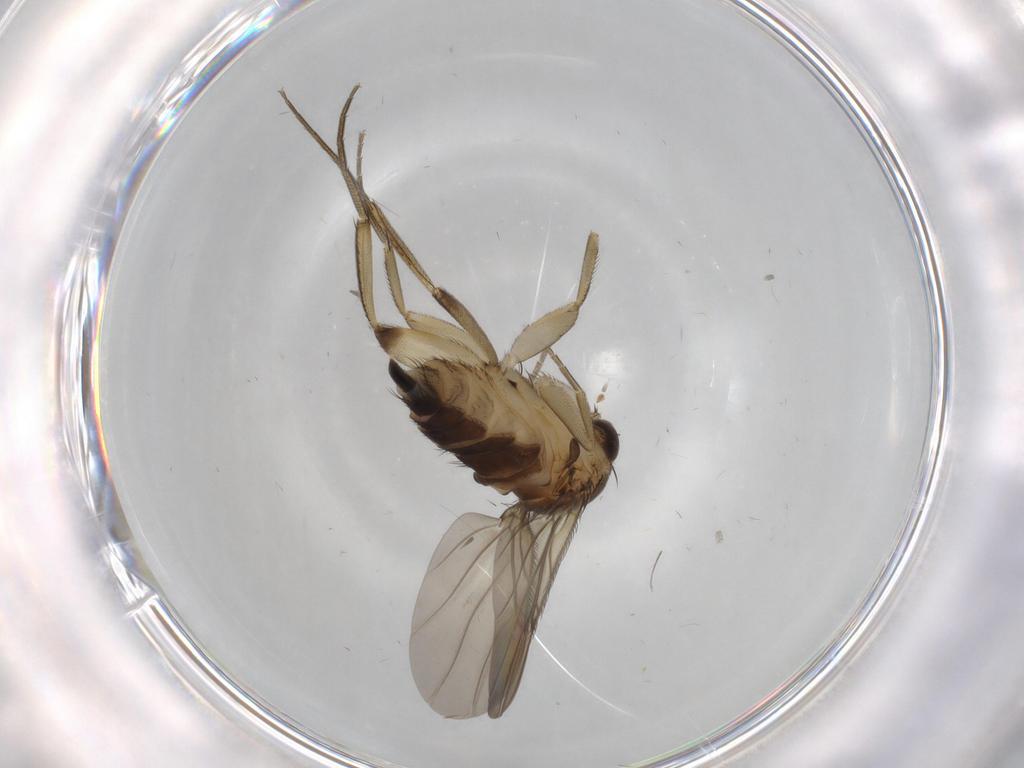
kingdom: Animalia
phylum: Arthropoda
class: Insecta
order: Diptera
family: Phoridae
